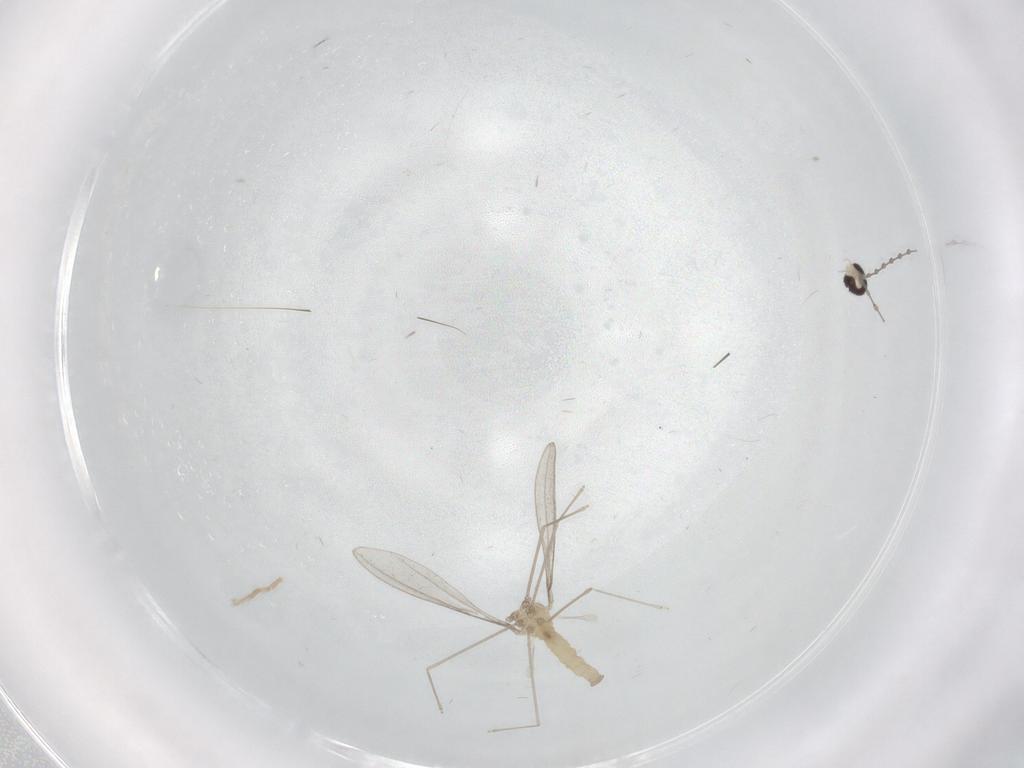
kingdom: Animalia
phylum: Arthropoda
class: Insecta
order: Diptera
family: Cecidomyiidae
